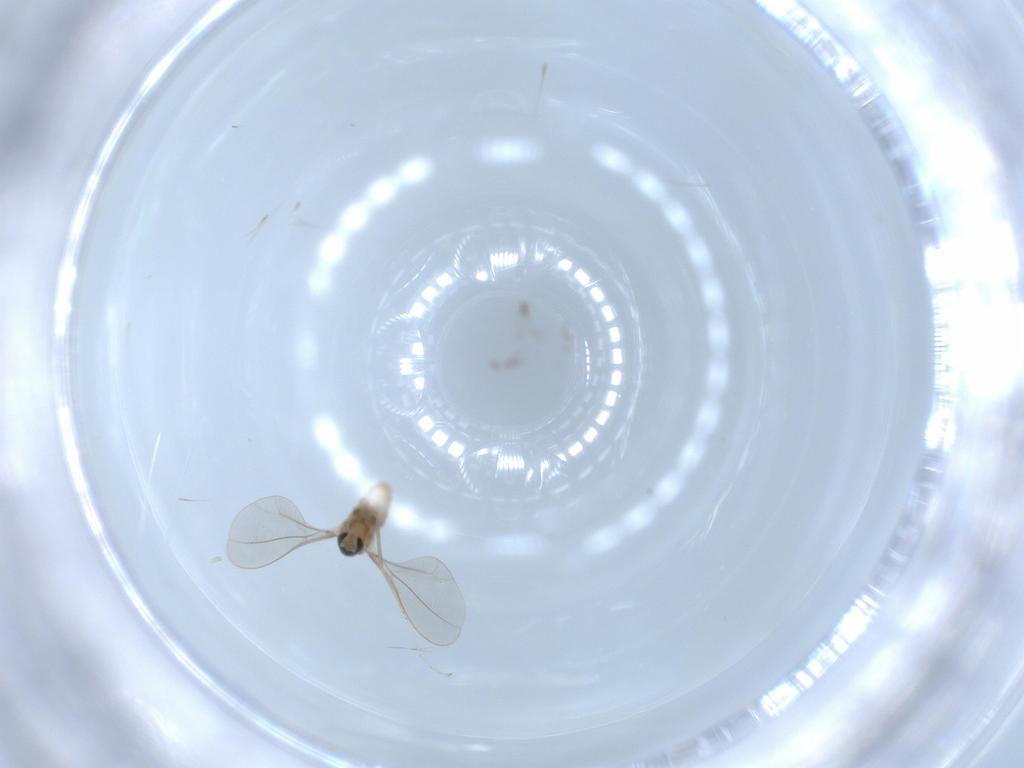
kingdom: Animalia
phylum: Arthropoda
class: Insecta
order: Diptera
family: Cecidomyiidae
